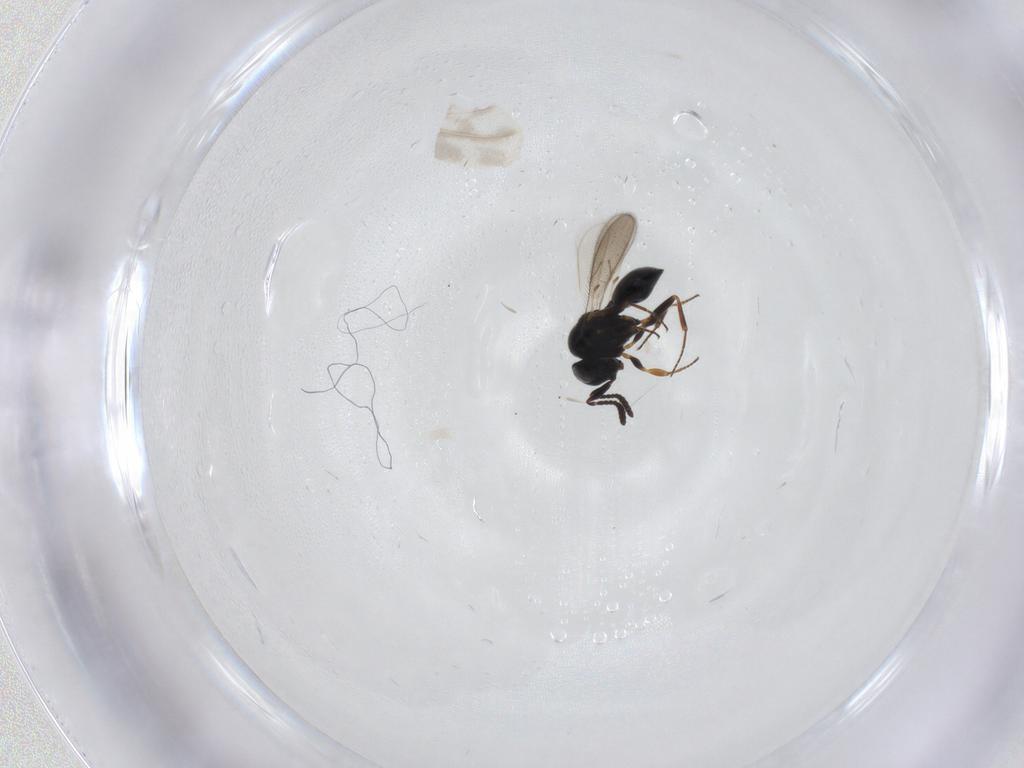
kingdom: Animalia
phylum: Arthropoda
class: Insecta
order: Hymenoptera
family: Scelionidae
